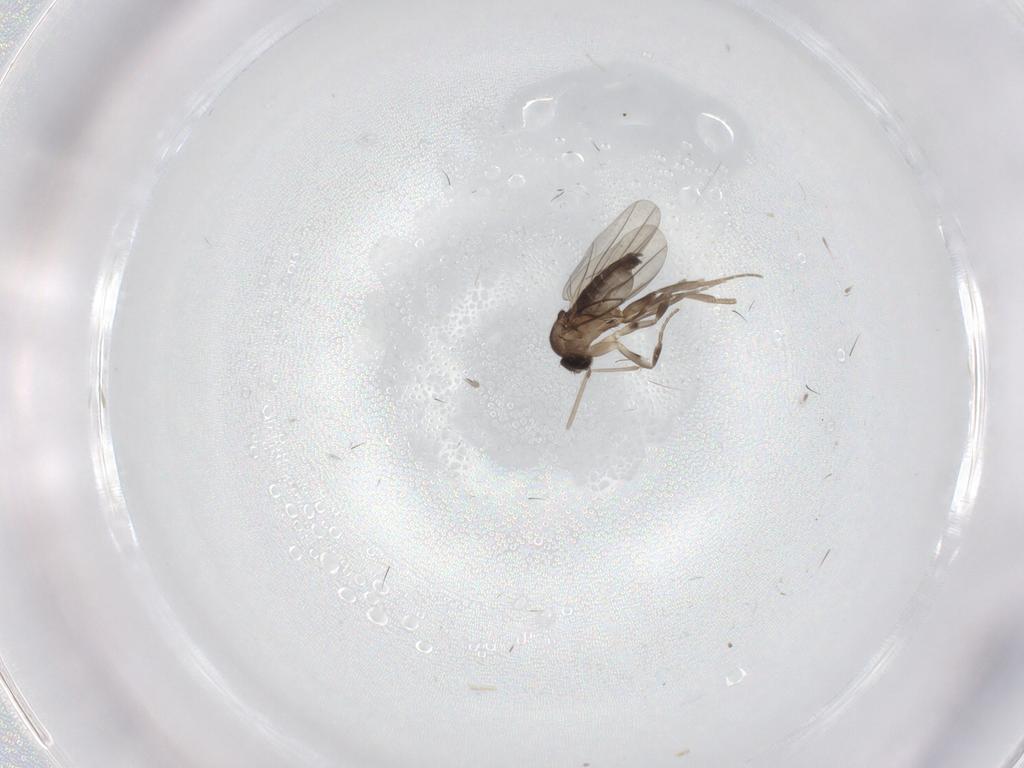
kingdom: Animalia
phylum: Arthropoda
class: Insecta
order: Diptera
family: Phoridae
